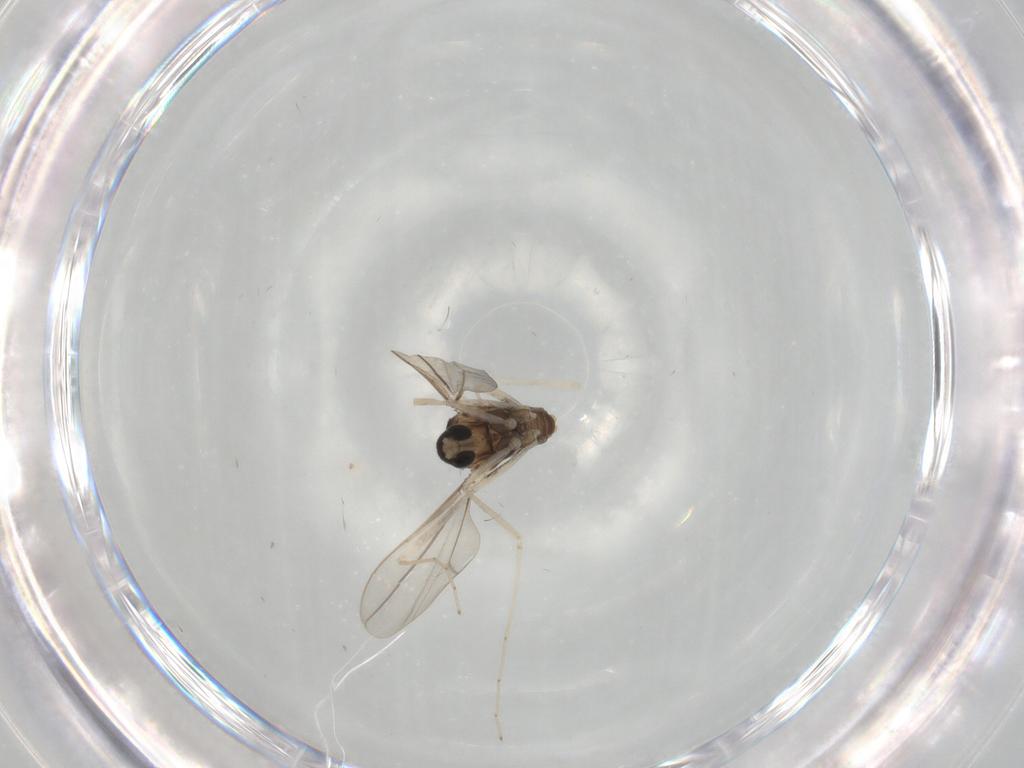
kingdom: Animalia
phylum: Arthropoda
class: Insecta
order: Diptera
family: Cecidomyiidae
